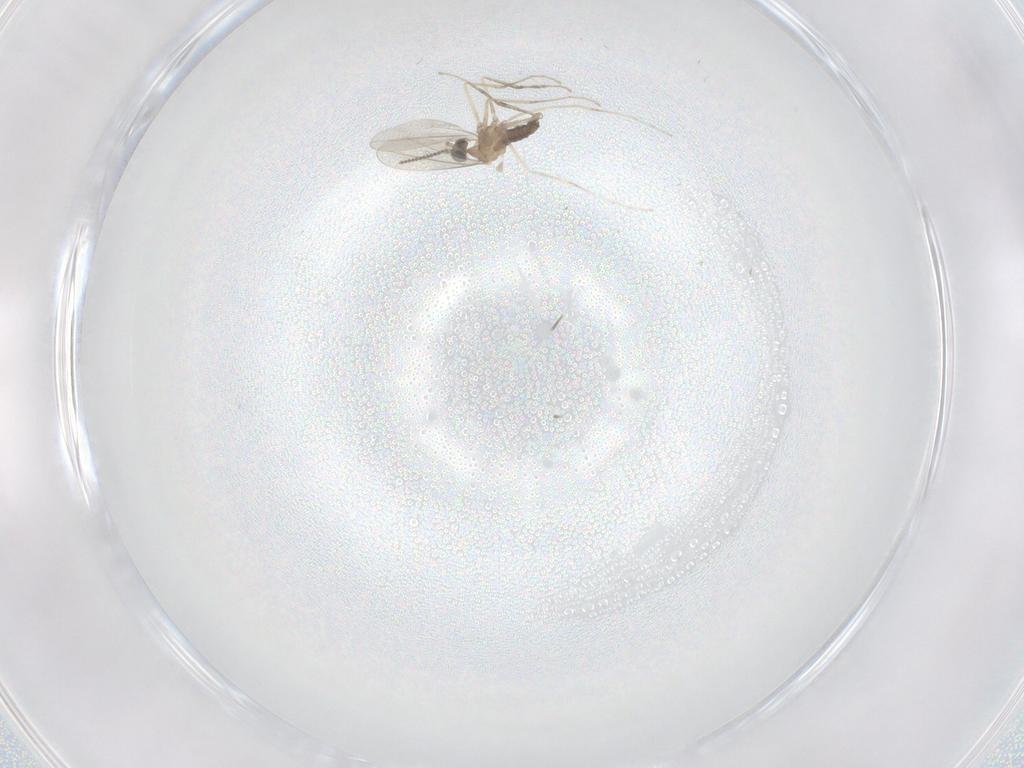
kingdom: Animalia
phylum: Arthropoda
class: Insecta
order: Diptera
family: Cecidomyiidae
